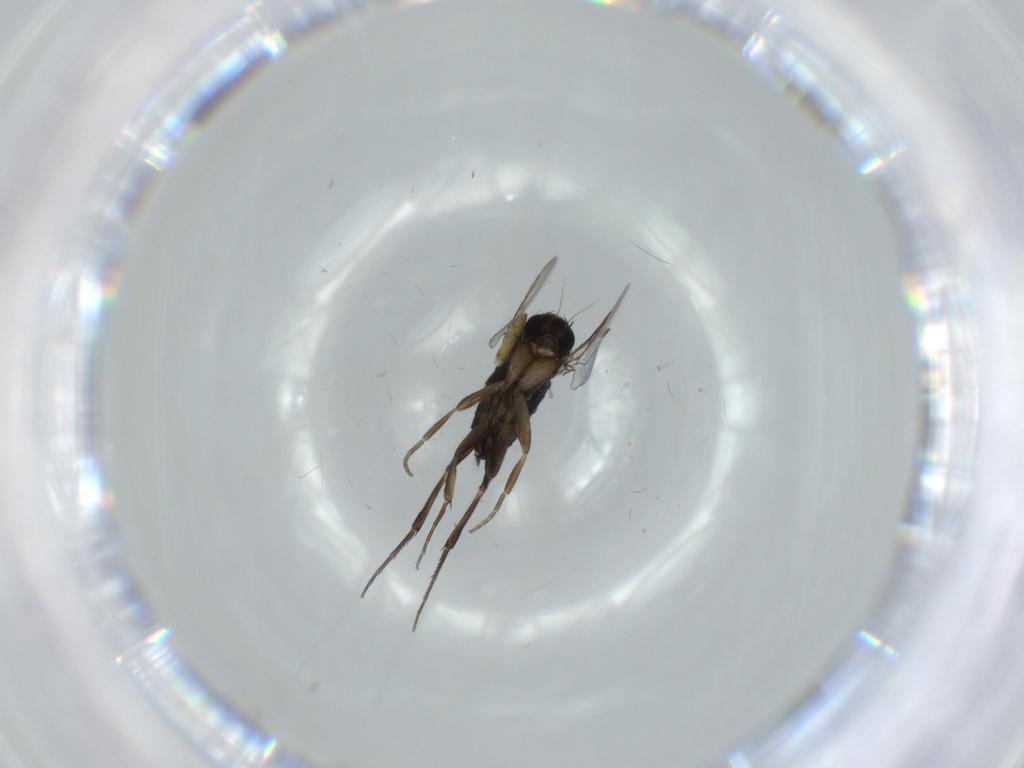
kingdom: Animalia
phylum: Arthropoda
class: Insecta
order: Diptera
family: Phoridae
